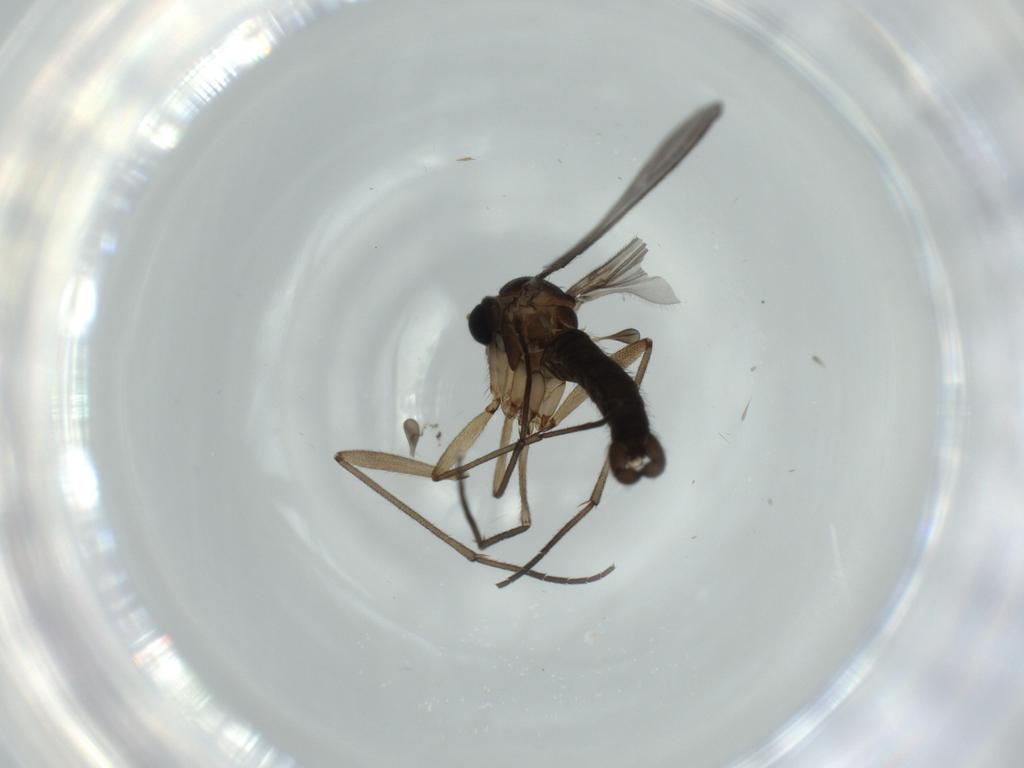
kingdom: Animalia
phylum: Arthropoda
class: Insecta
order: Diptera
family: Sciaridae
